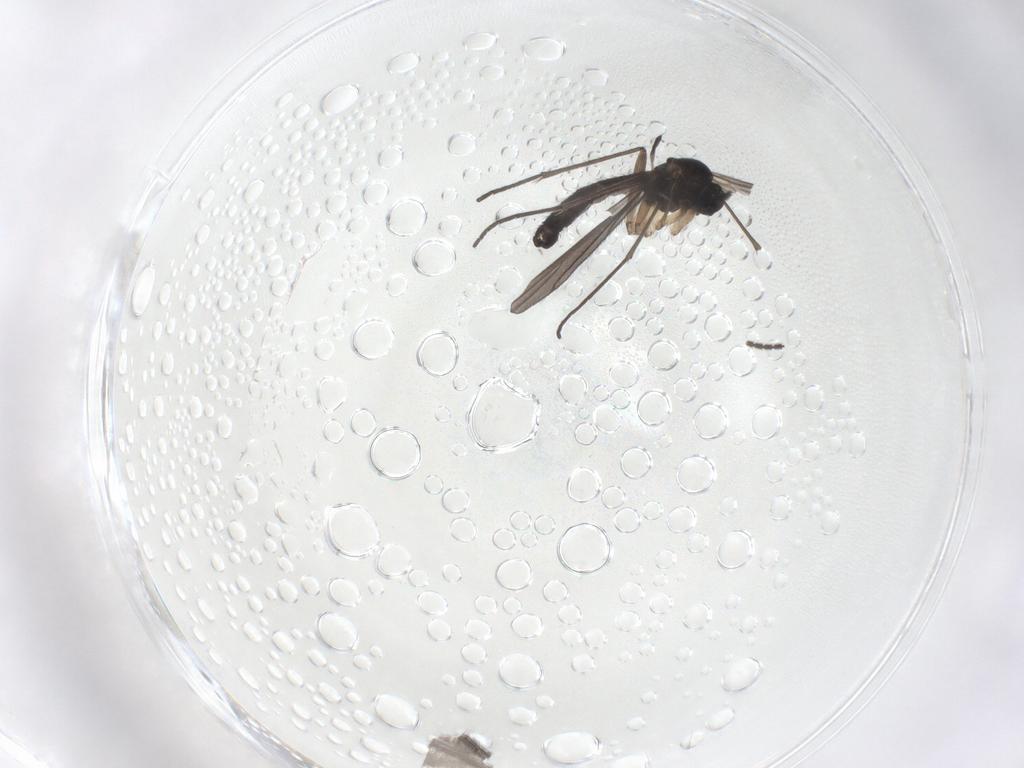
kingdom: Animalia
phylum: Arthropoda
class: Insecta
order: Diptera
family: Sciaridae
